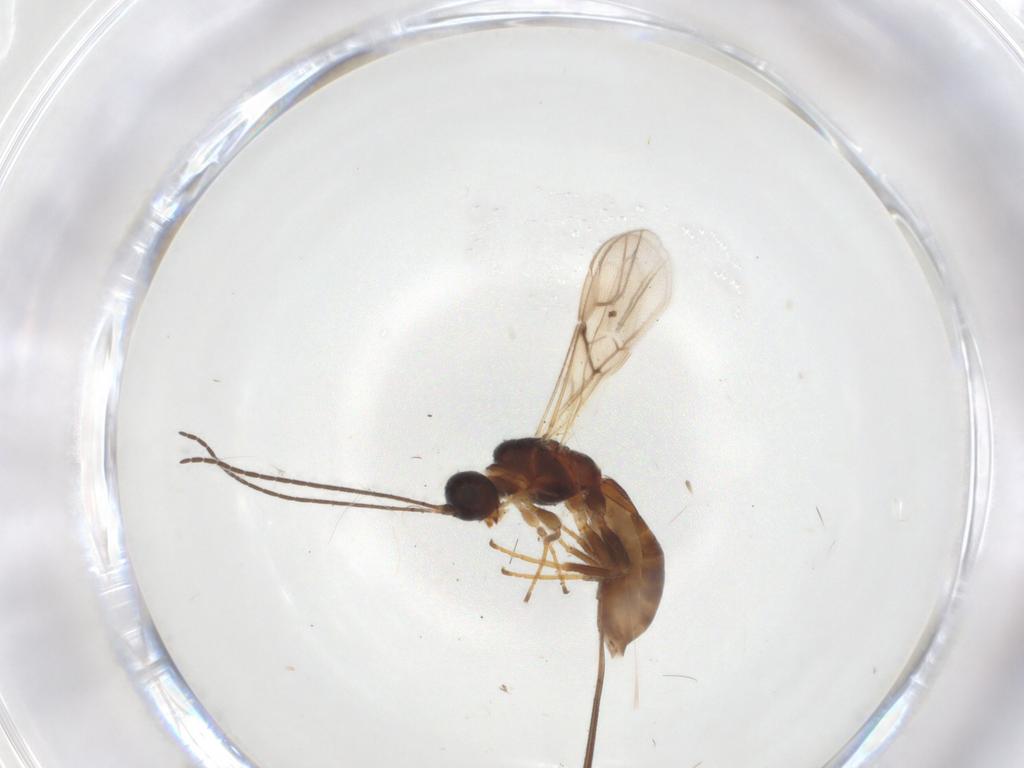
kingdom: Animalia
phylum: Arthropoda
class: Insecta
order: Hymenoptera
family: Braconidae
